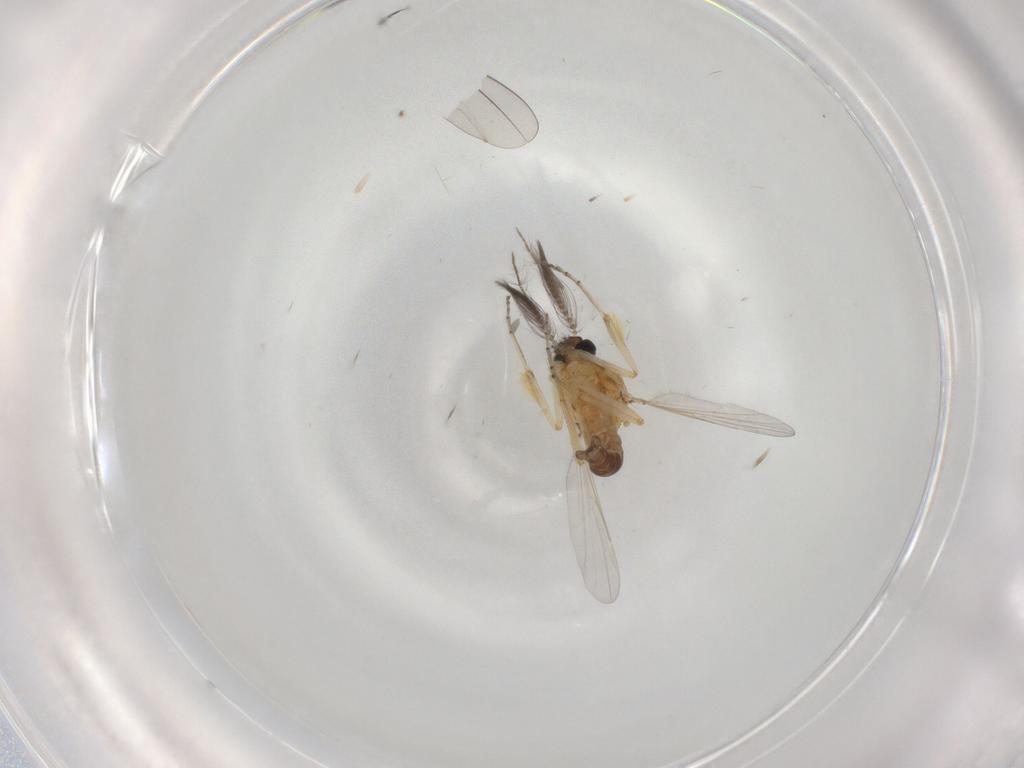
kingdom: Animalia
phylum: Arthropoda
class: Insecta
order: Diptera
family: Ceratopogonidae
